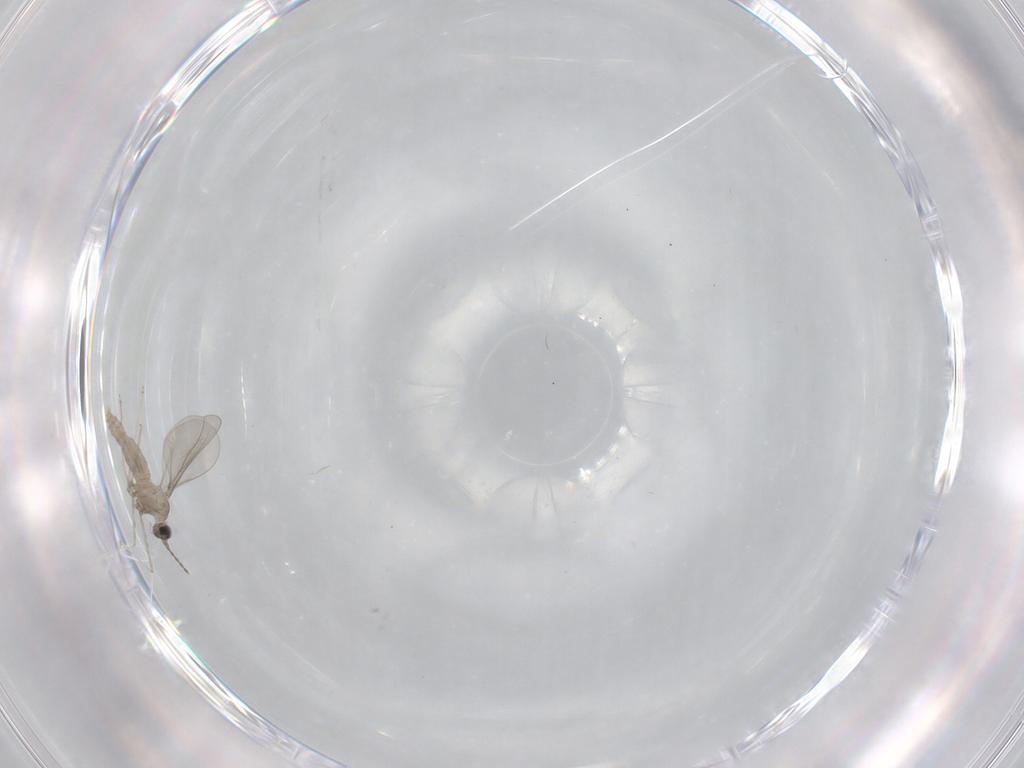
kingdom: Animalia
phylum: Arthropoda
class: Insecta
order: Diptera
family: Cecidomyiidae
